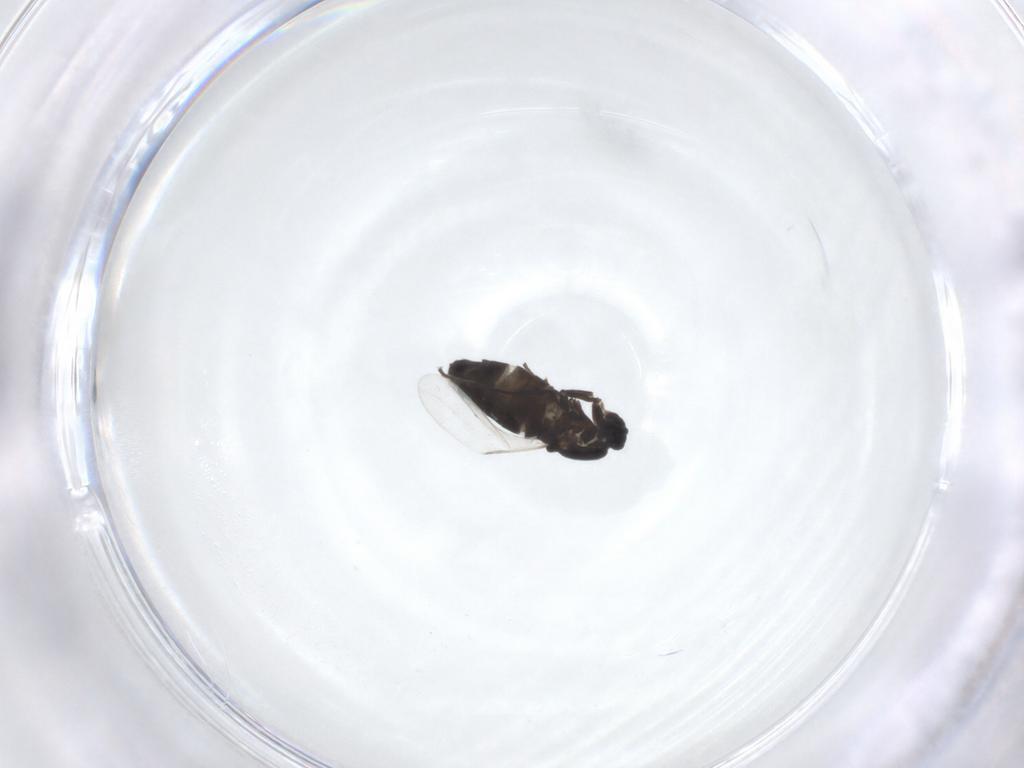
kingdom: Animalia
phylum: Arthropoda
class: Insecta
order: Diptera
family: Scatopsidae
